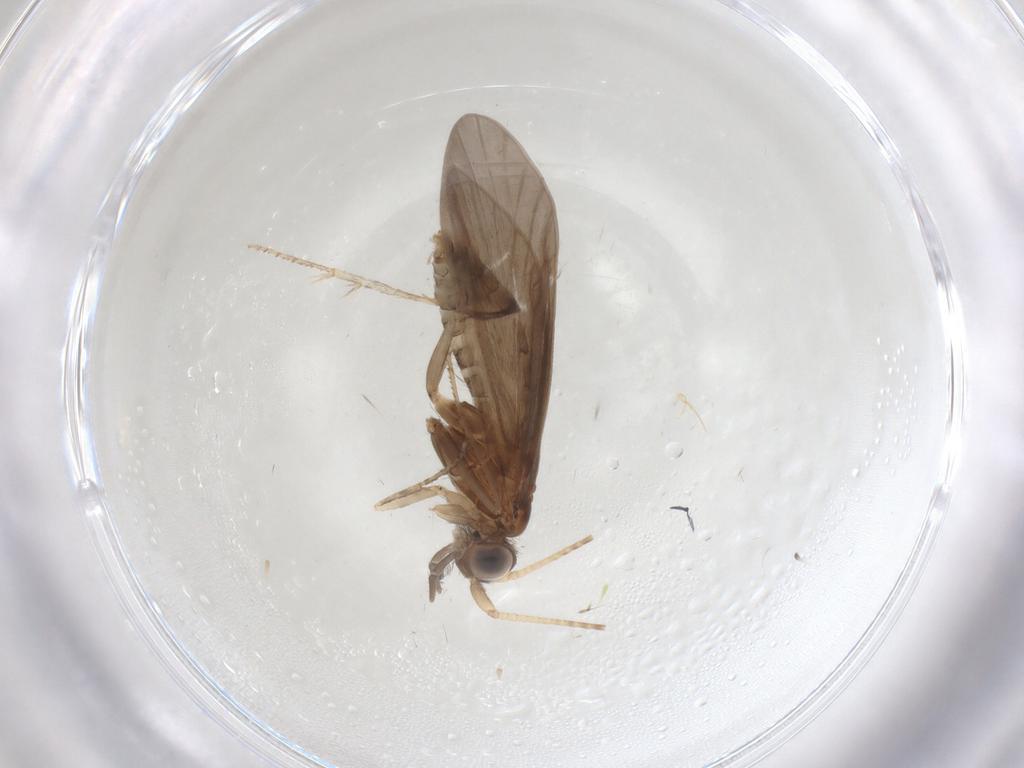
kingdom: Animalia
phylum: Arthropoda
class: Insecta
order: Trichoptera
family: Helicopsychidae
